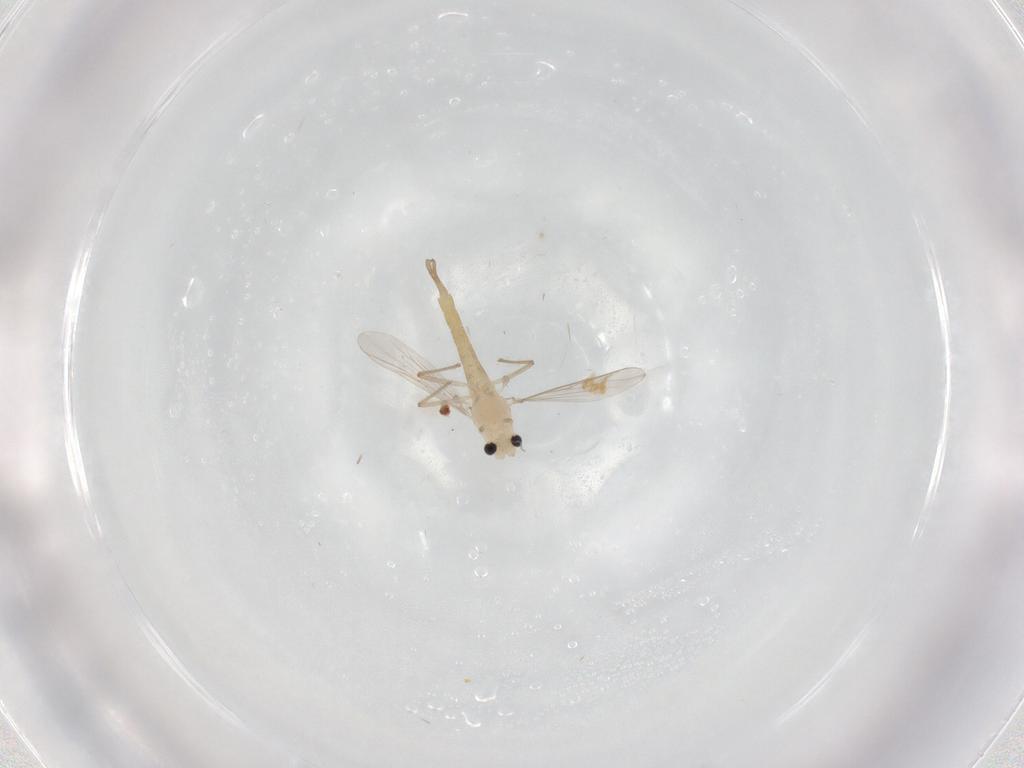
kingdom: Animalia
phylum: Arthropoda
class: Insecta
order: Diptera
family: Chironomidae
